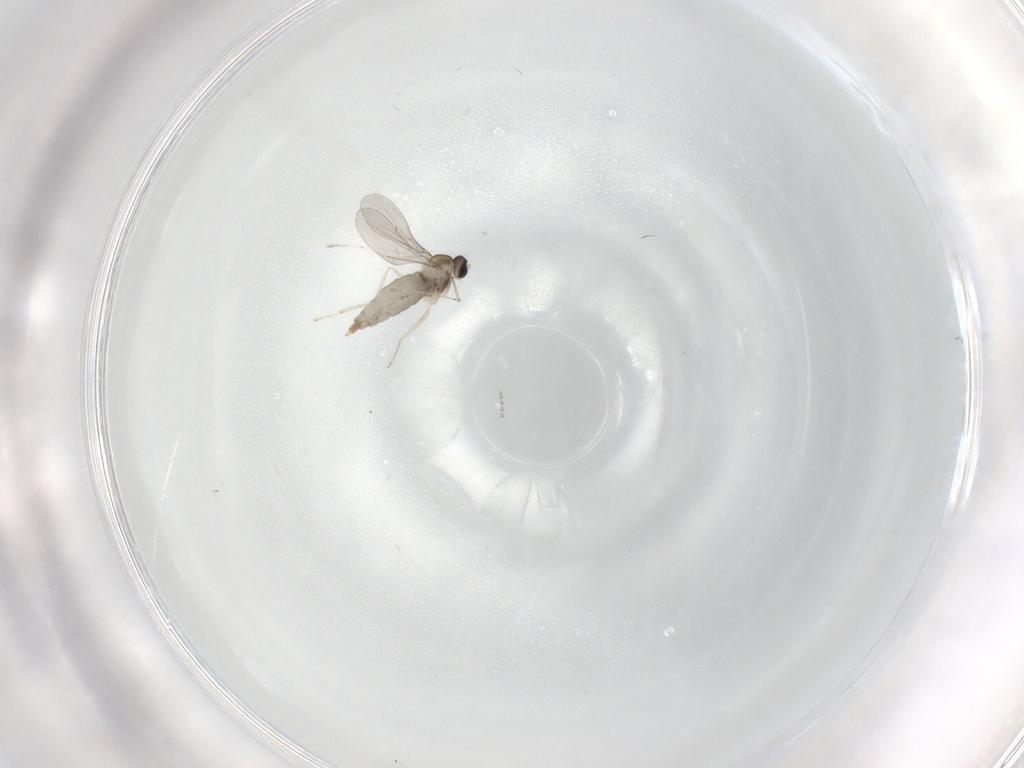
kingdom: Animalia
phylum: Arthropoda
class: Insecta
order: Diptera
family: Cecidomyiidae
